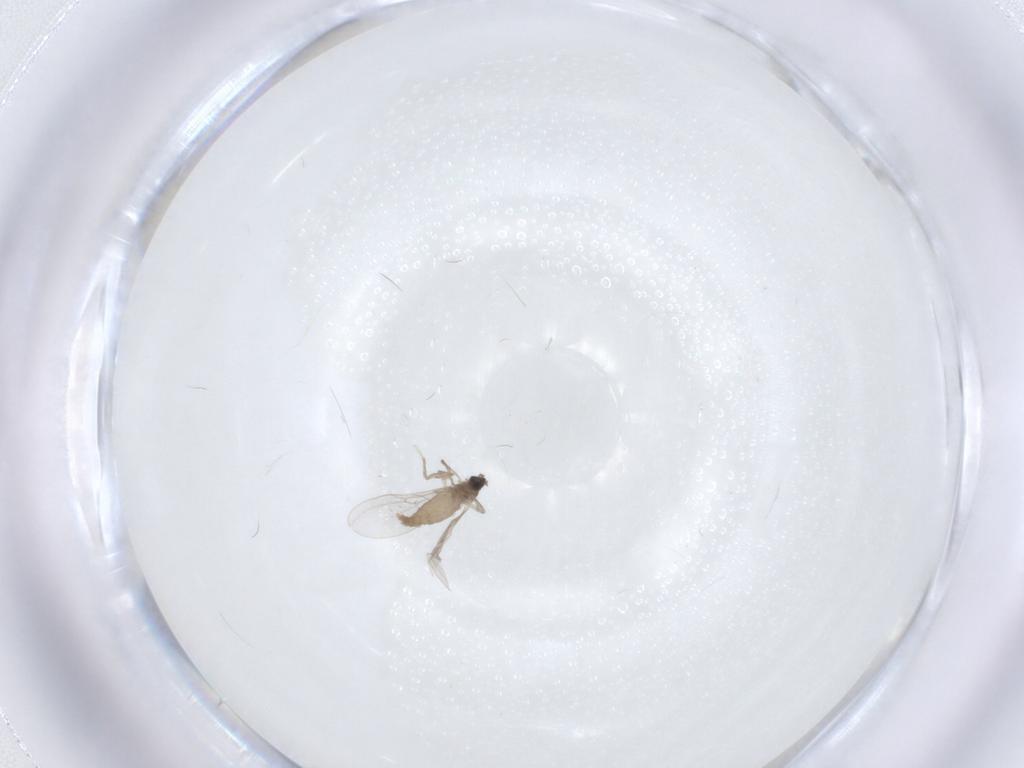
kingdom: Animalia
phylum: Arthropoda
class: Insecta
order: Diptera
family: Cecidomyiidae
